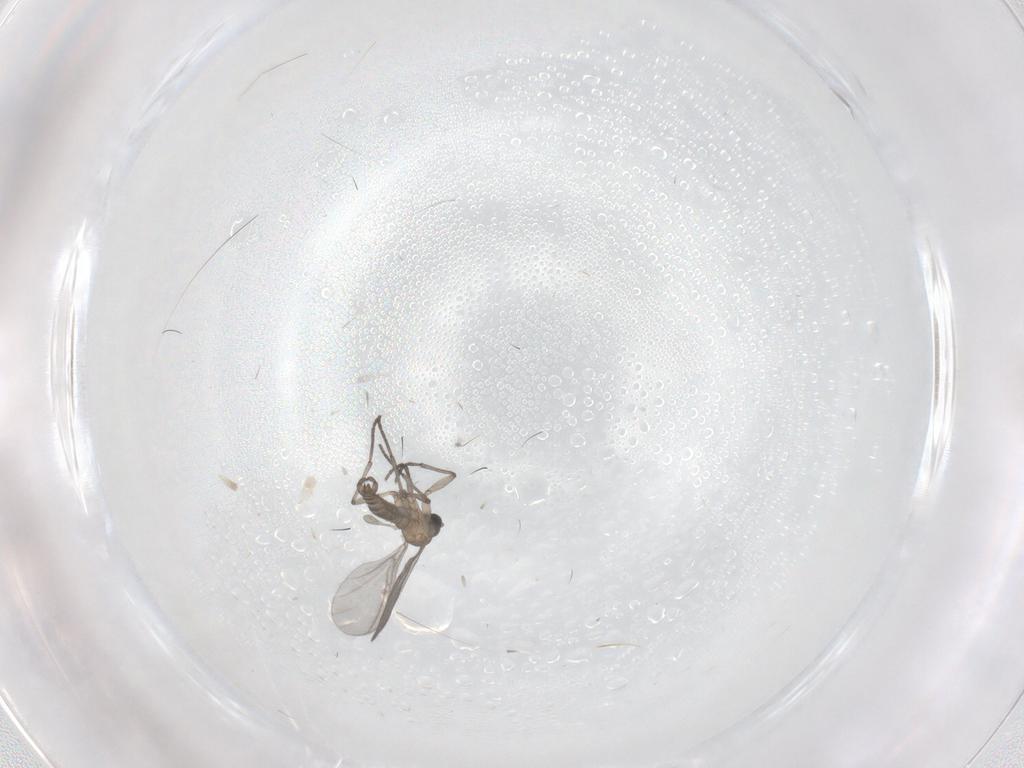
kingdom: Animalia
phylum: Arthropoda
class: Insecta
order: Diptera
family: Sciaridae
